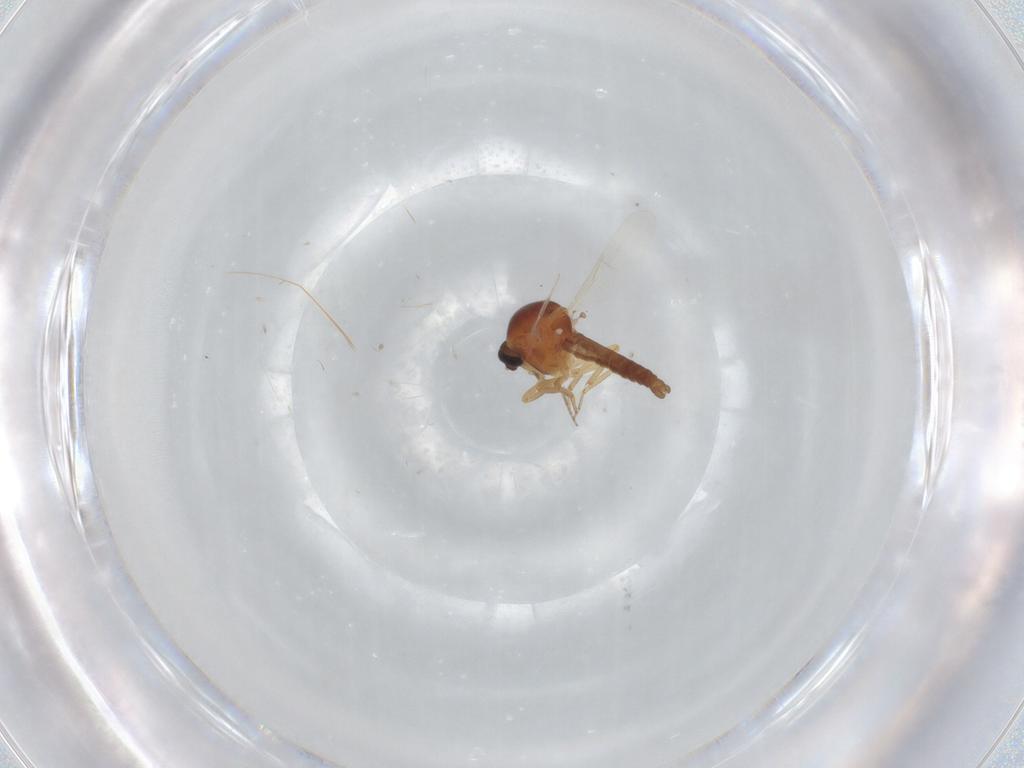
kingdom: Animalia
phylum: Arthropoda
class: Insecta
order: Diptera
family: Ceratopogonidae
